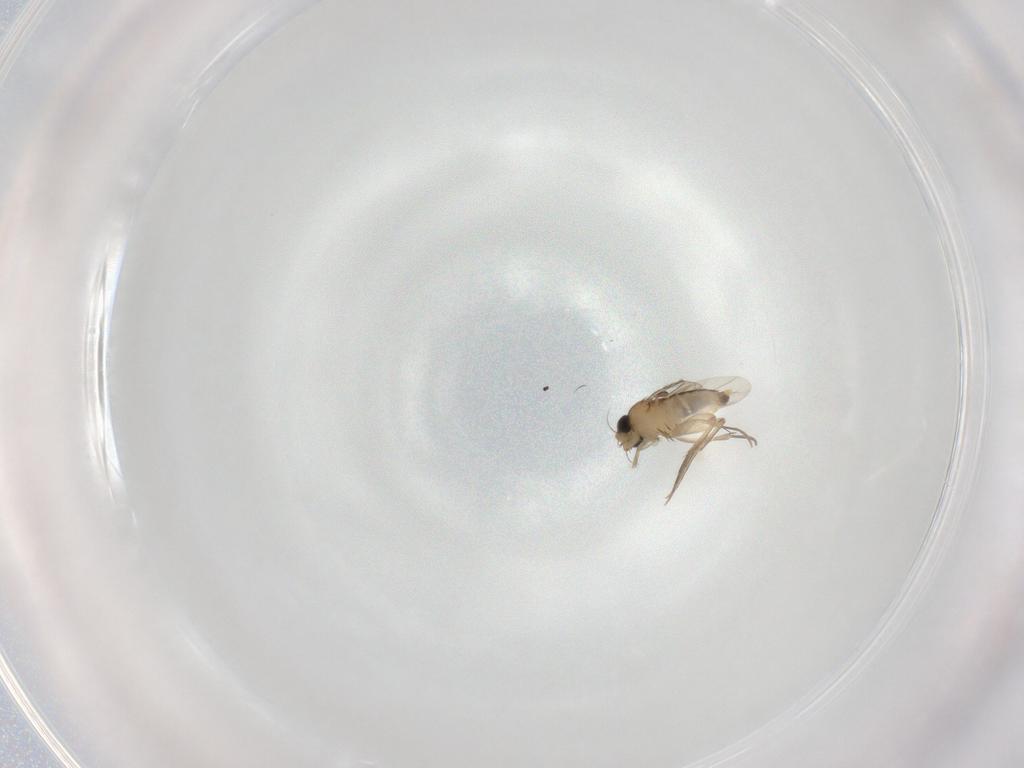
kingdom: Animalia
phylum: Arthropoda
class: Insecta
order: Diptera
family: Phoridae
